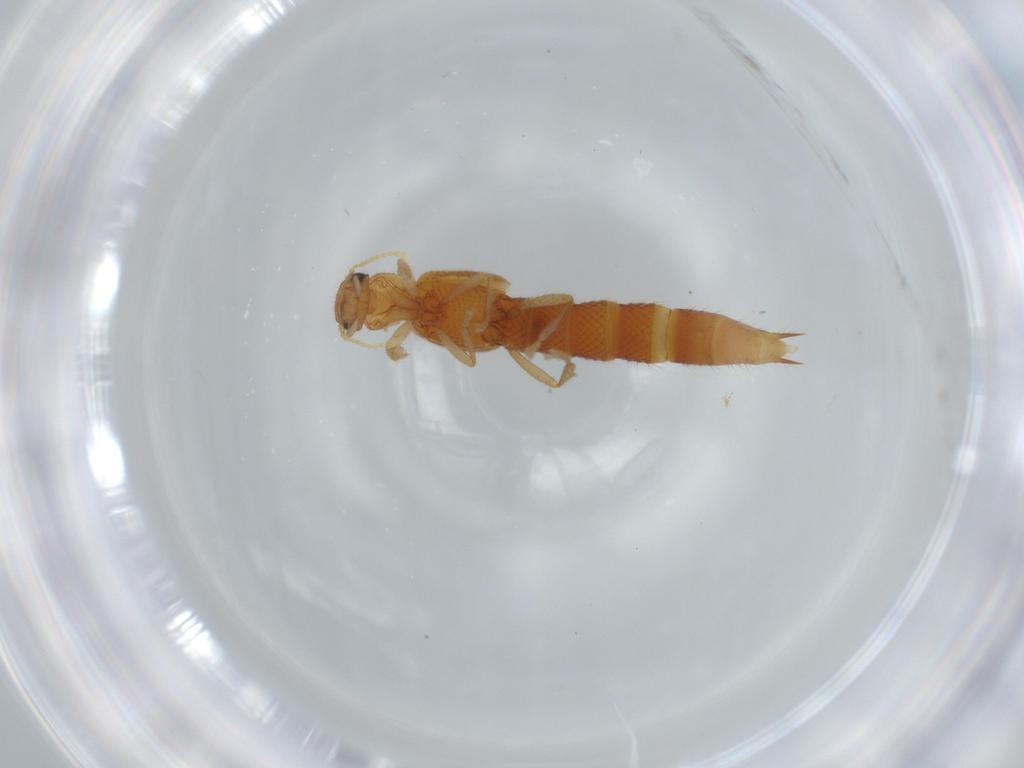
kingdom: Animalia
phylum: Arthropoda
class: Insecta
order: Coleoptera
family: Staphylinidae
